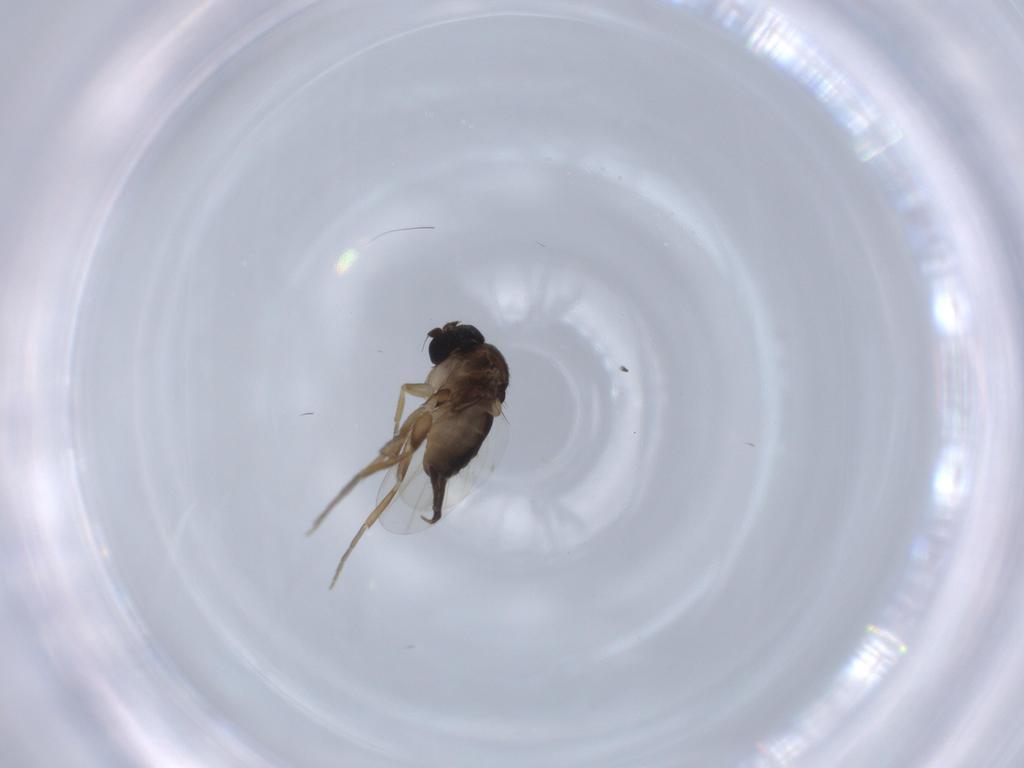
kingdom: Animalia
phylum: Arthropoda
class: Insecta
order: Diptera
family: Phoridae
